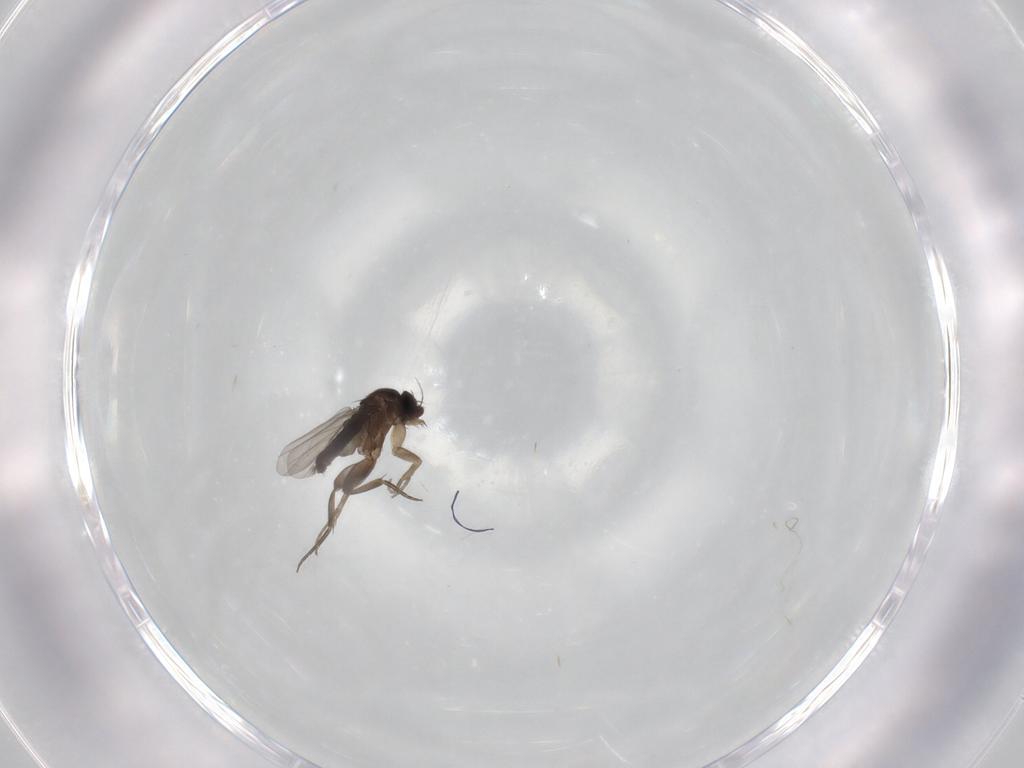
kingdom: Animalia
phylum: Arthropoda
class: Insecta
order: Diptera
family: Phoridae
